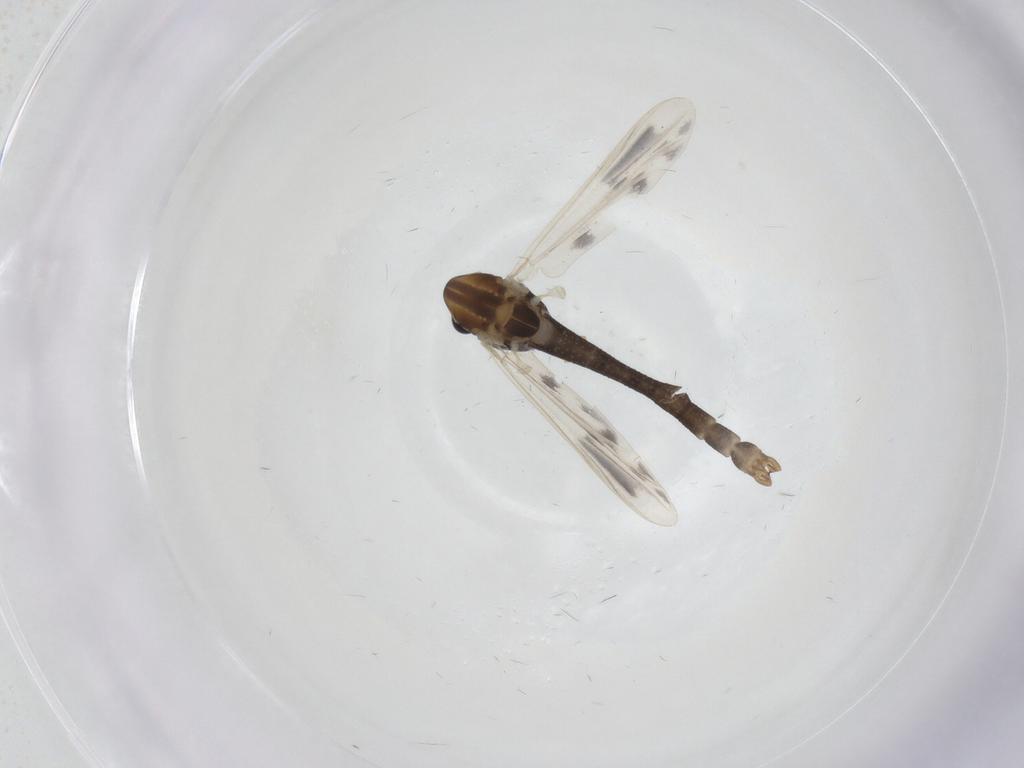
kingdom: Animalia
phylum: Arthropoda
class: Insecta
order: Diptera
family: Chironomidae
